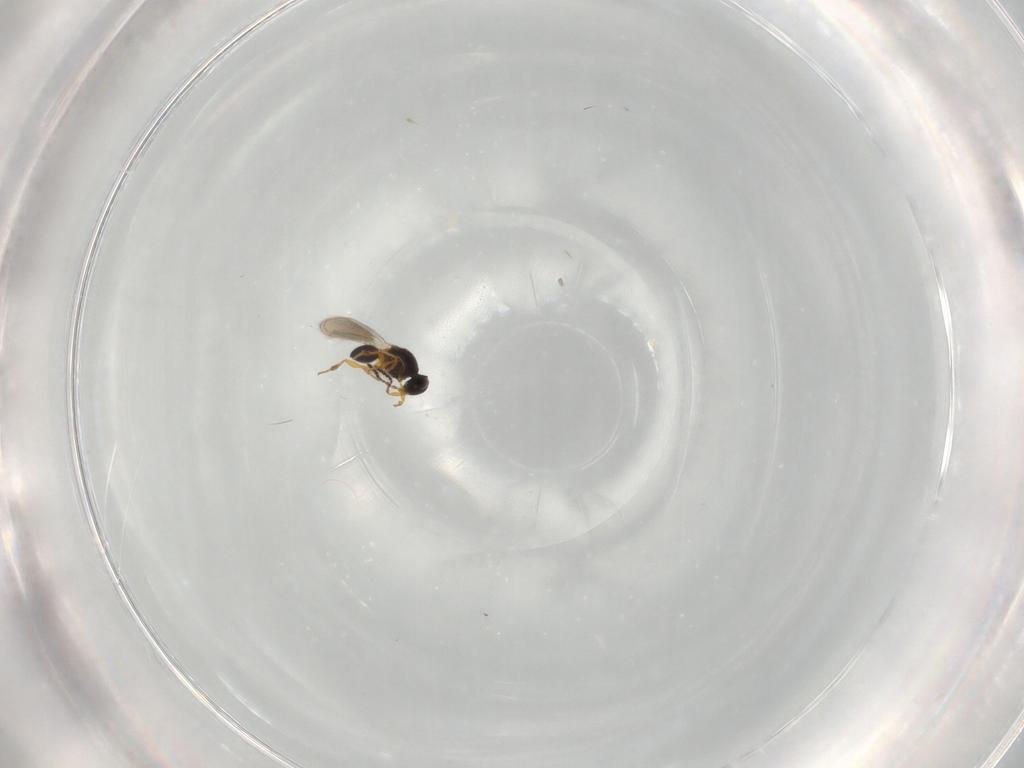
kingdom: Animalia
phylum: Arthropoda
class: Insecta
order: Hymenoptera
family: Platygastridae
